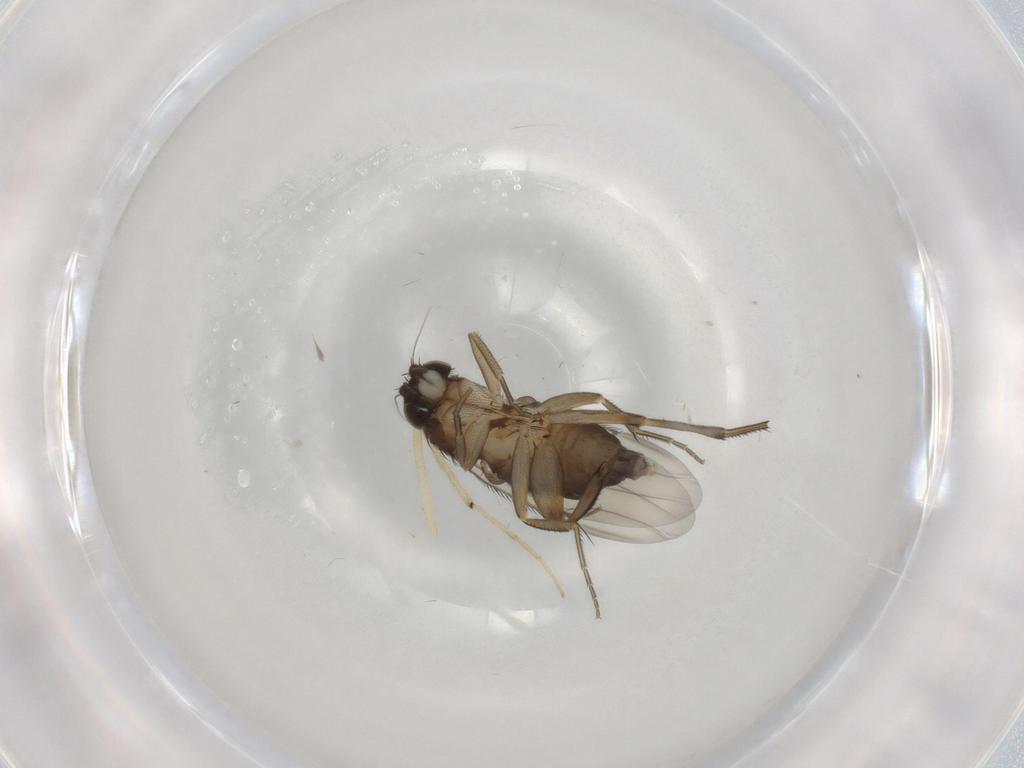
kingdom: Animalia
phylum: Arthropoda
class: Insecta
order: Diptera
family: Phoridae
